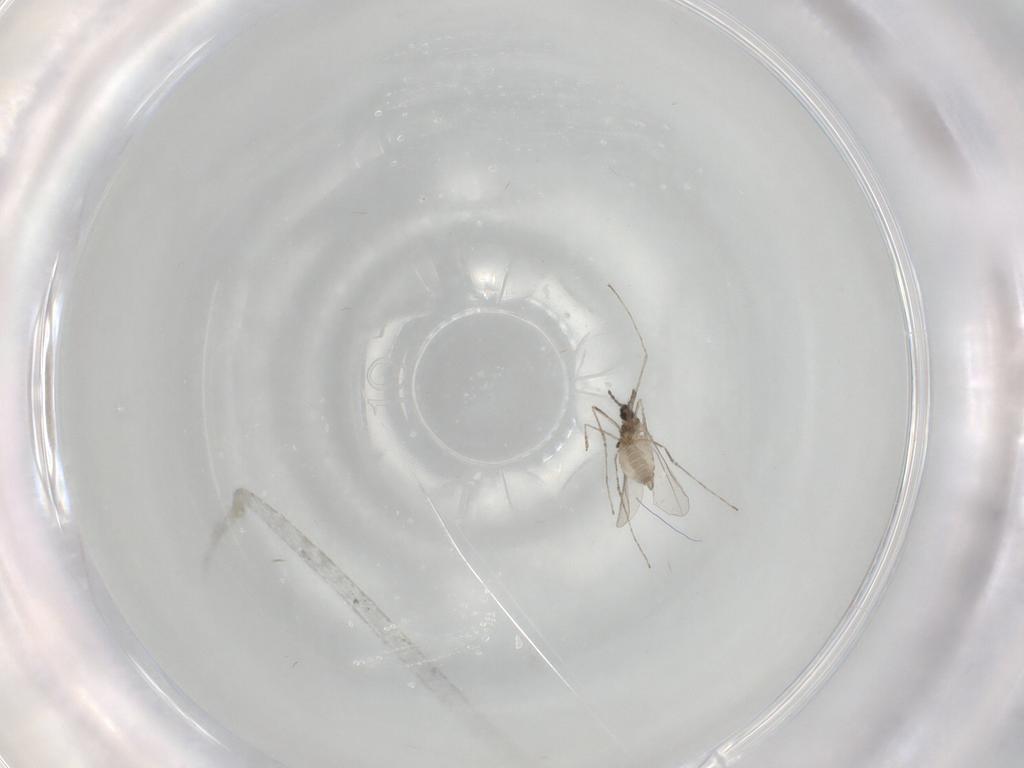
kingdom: Animalia
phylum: Arthropoda
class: Insecta
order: Diptera
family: Cecidomyiidae
